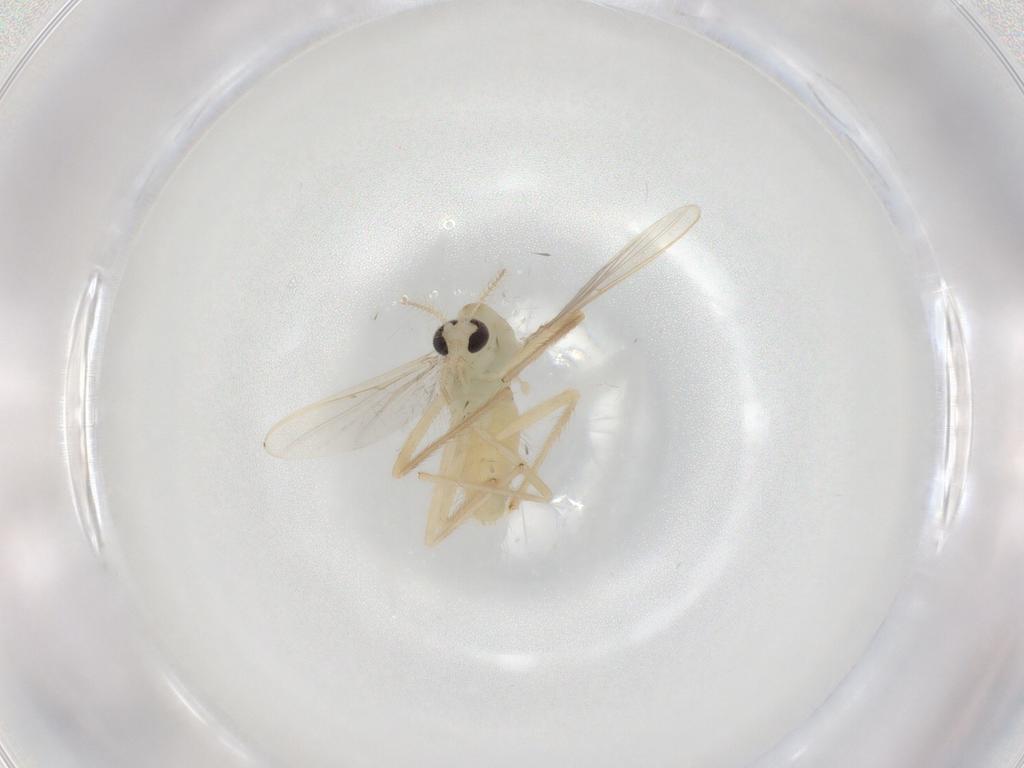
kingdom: Animalia
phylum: Arthropoda
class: Insecta
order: Diptera
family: Chironomidae
